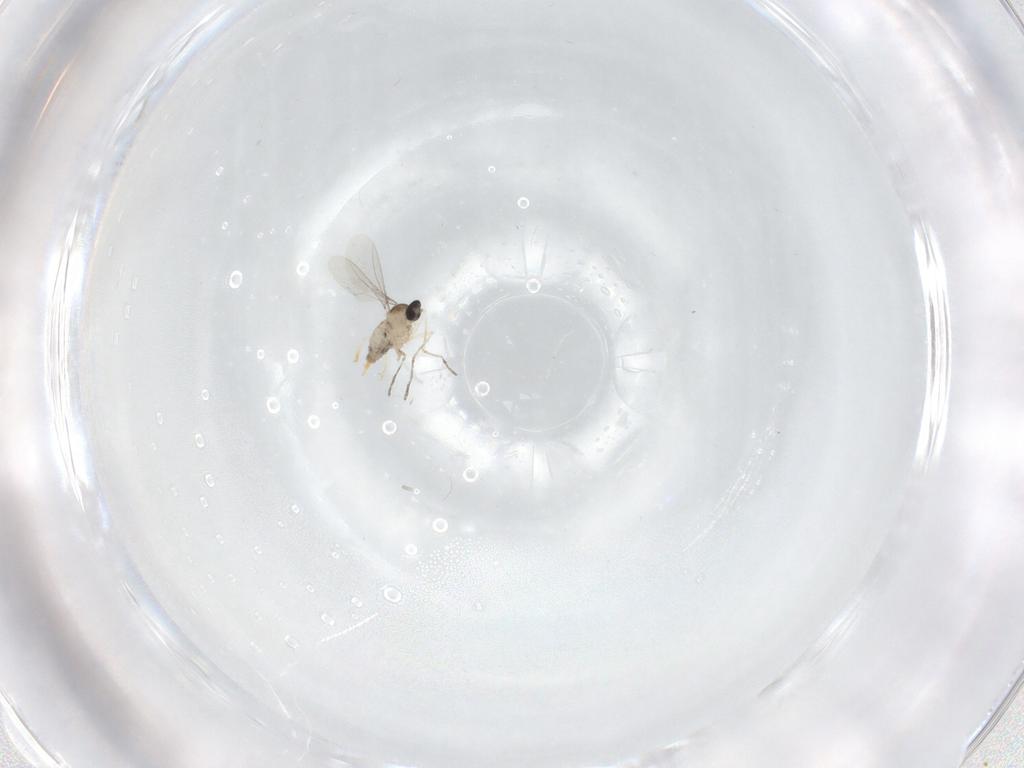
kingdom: Animalia
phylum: Arthropoda
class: Insecta
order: Diptera
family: Cecidomyiidae
